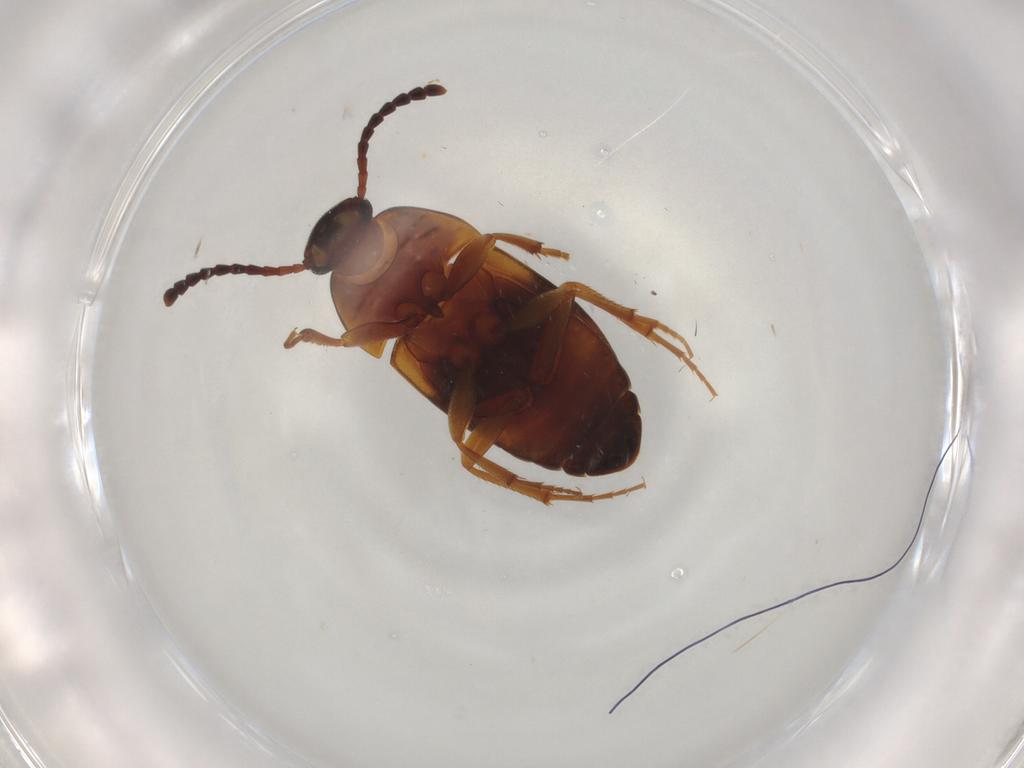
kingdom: Animalia
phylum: Arthropoda
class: Insecta
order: Coleoptera
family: Tenebrionidae
